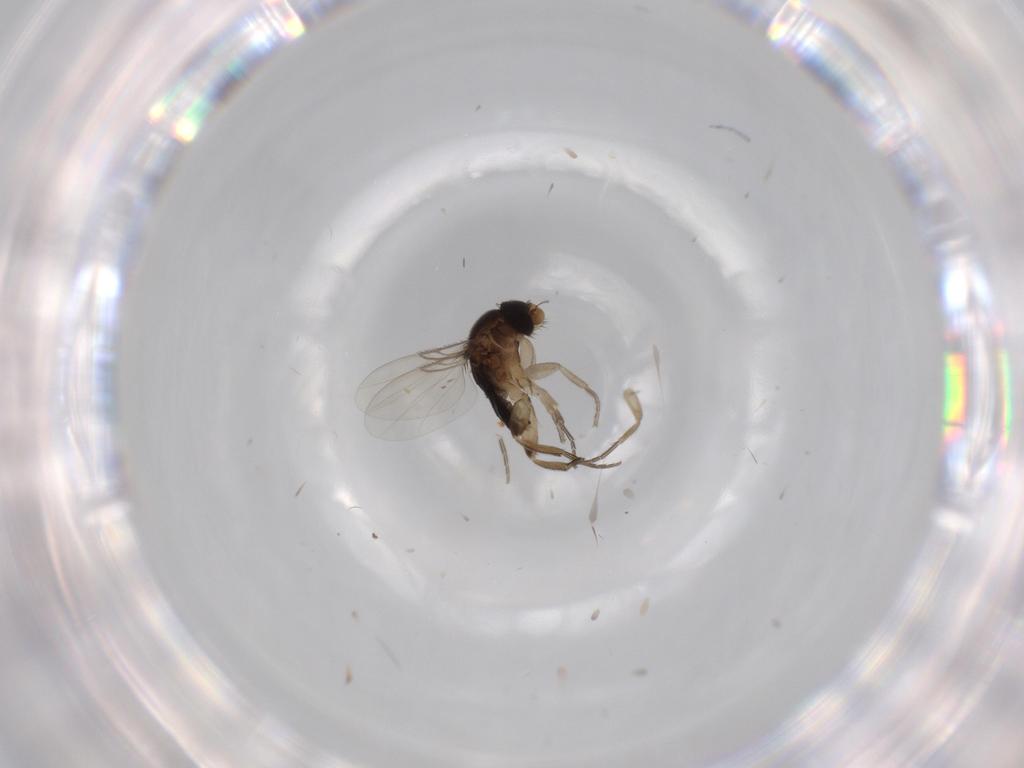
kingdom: Animalia
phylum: Arthropoda
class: Insecta
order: Diptera
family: Phoridae
